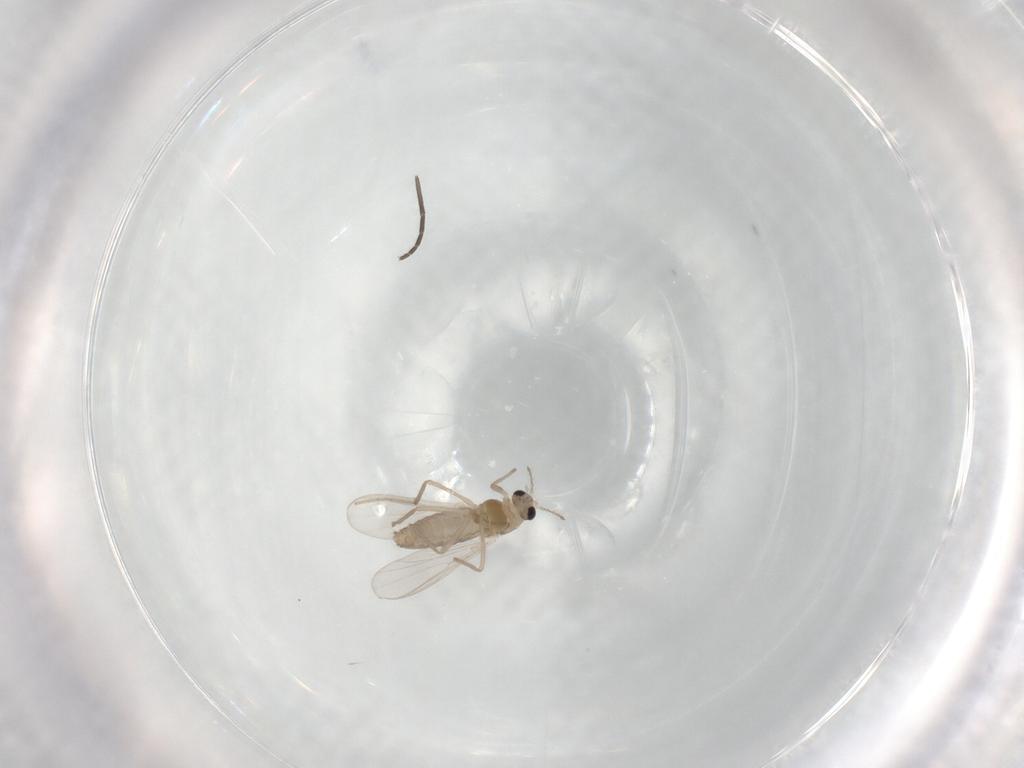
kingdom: Animalia
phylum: Arthropoda
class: Insecta
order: Diptera
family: Chironomidae
